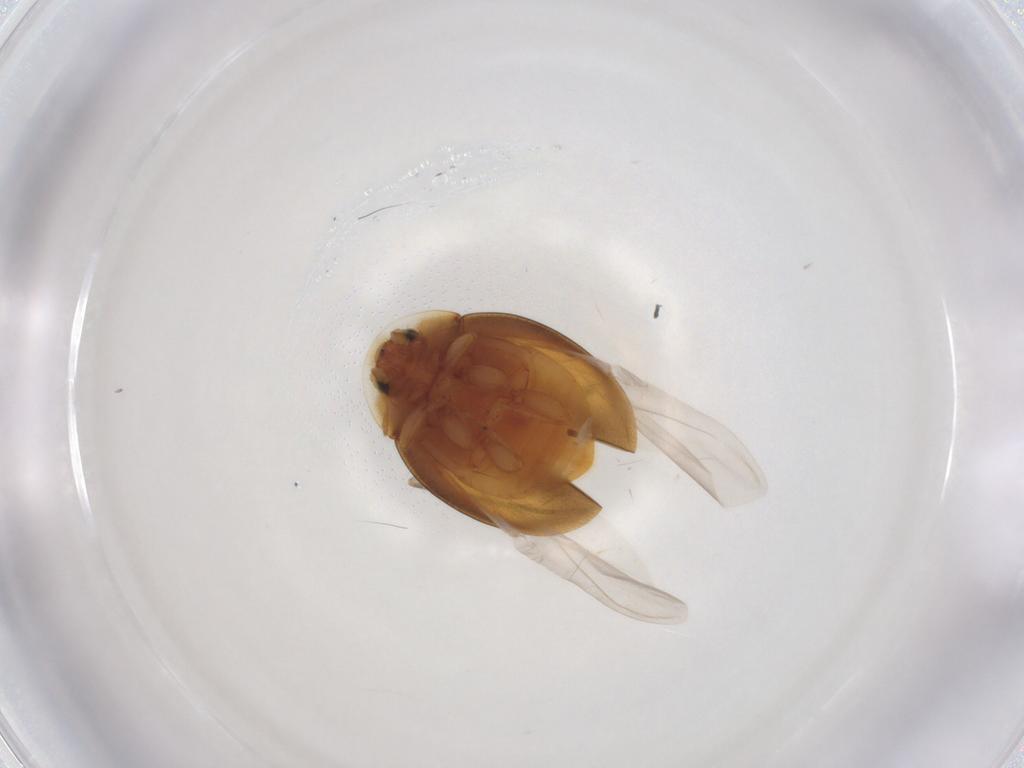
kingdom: Animalia
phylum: Arthropoda
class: Insecta
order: Coleoptera
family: Coccinellidae
